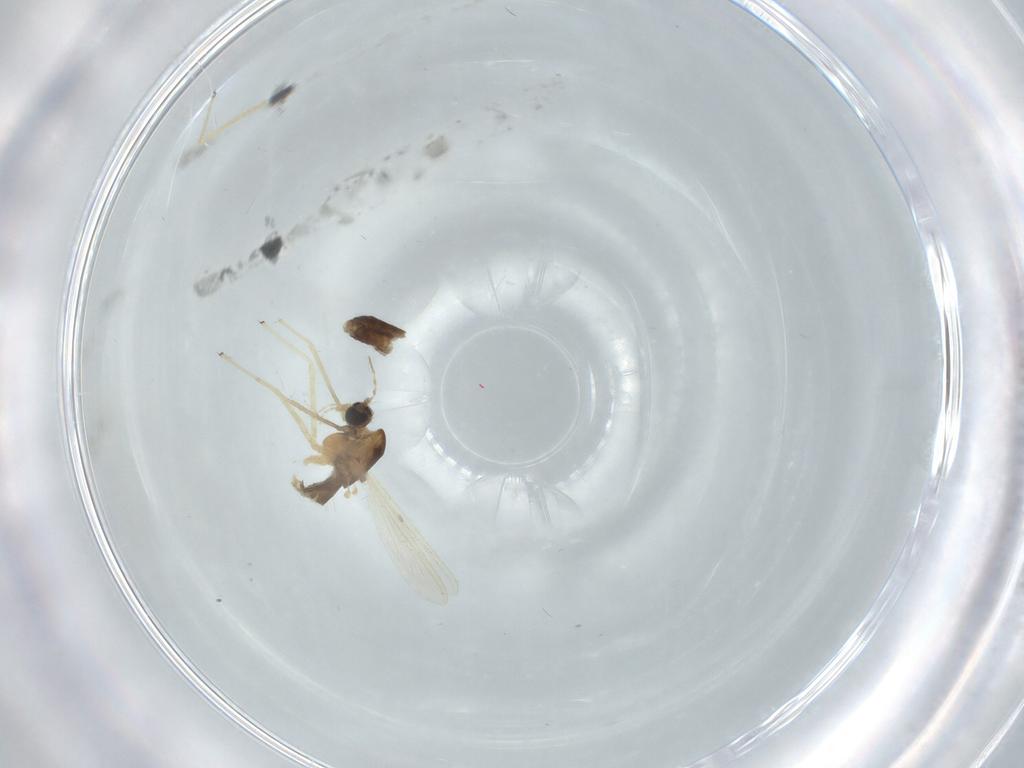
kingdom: Animalia
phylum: Arthropoda
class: Insecta
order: Diptera
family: Chironomidae
